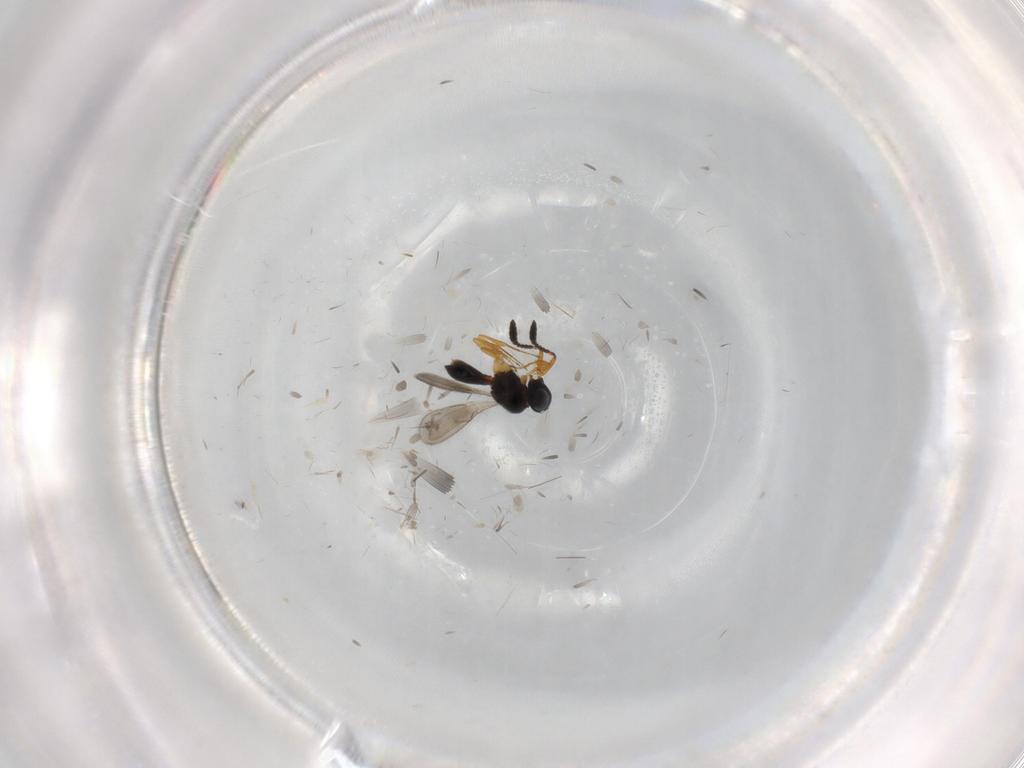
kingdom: Animalia
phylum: Arthropoda
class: Insecta
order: Hymenoptera
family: Scelionidae
